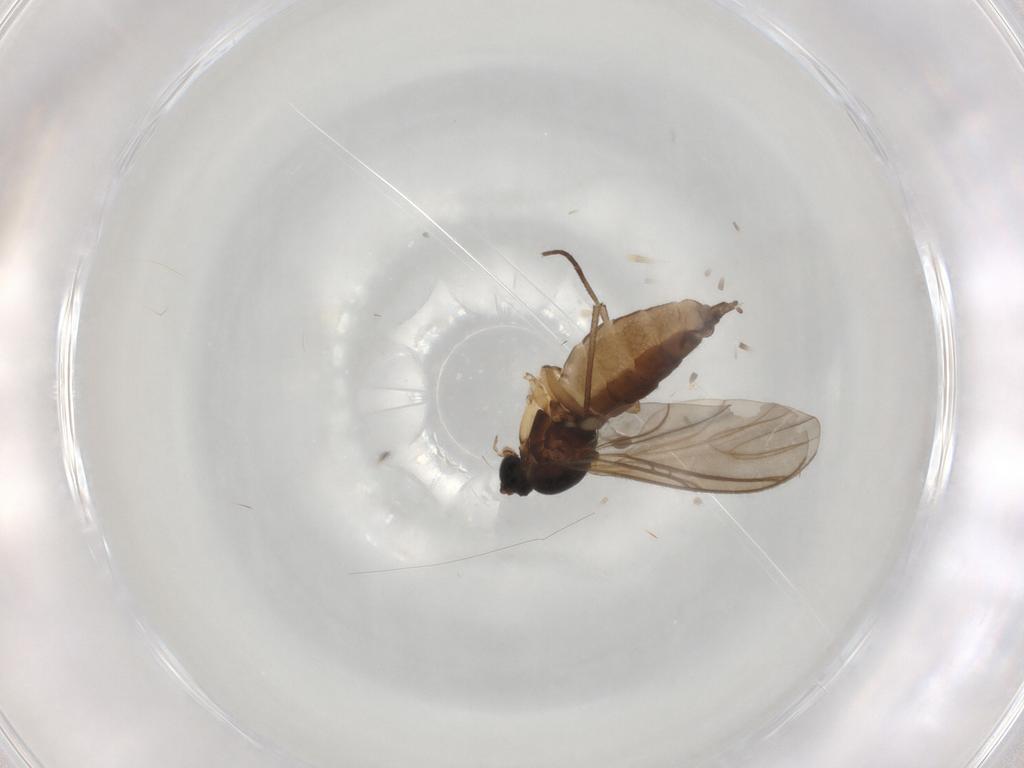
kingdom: Animalia
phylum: Arthropoda
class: Insecta
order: Diptera
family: Sciaridae
